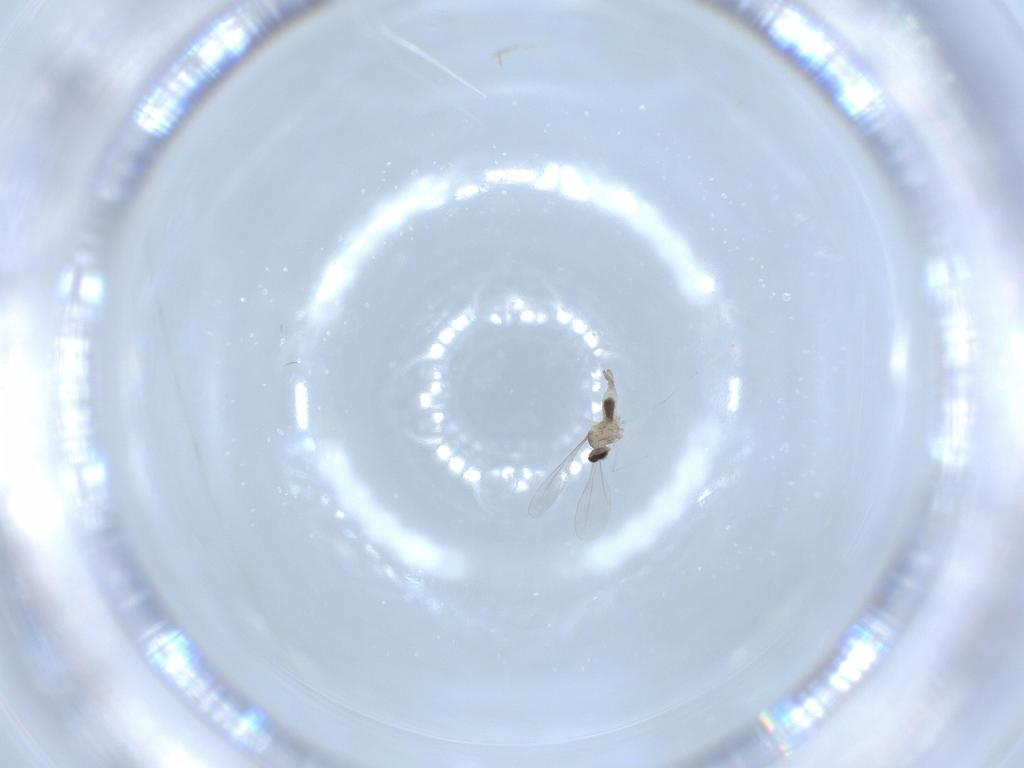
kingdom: Animalia
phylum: Arthropoda
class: Insecta
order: Diptera
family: Cecidomyiidae
